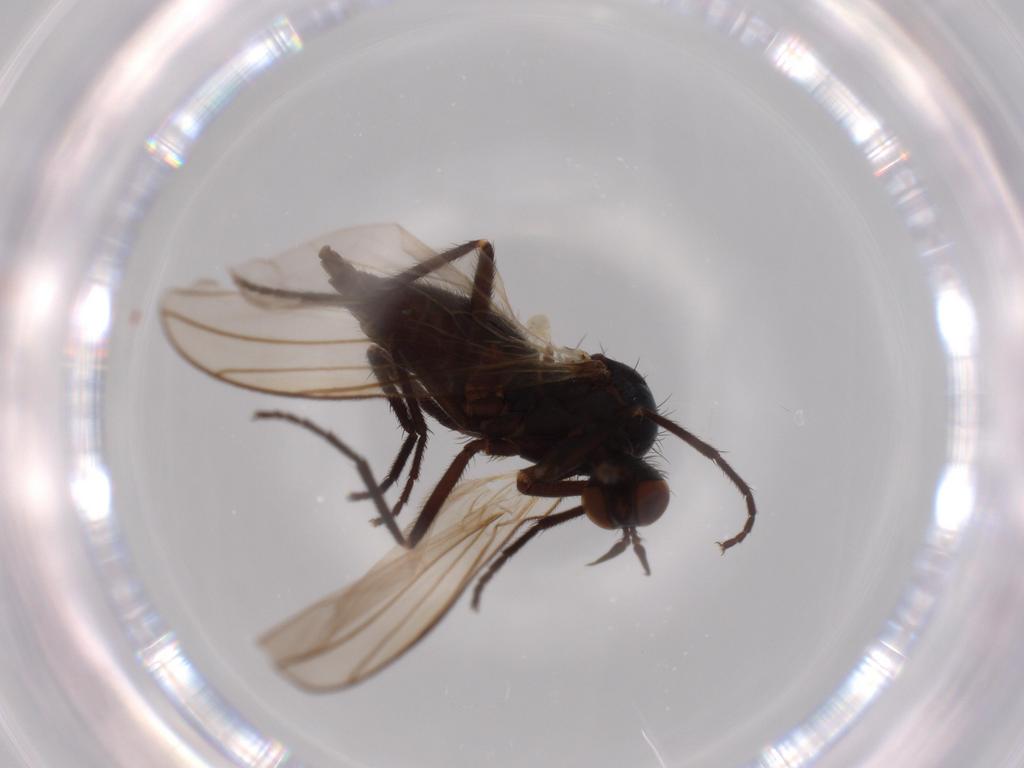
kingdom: Animalia
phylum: Arthropoda
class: Insecta
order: Diptera
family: Empididae
